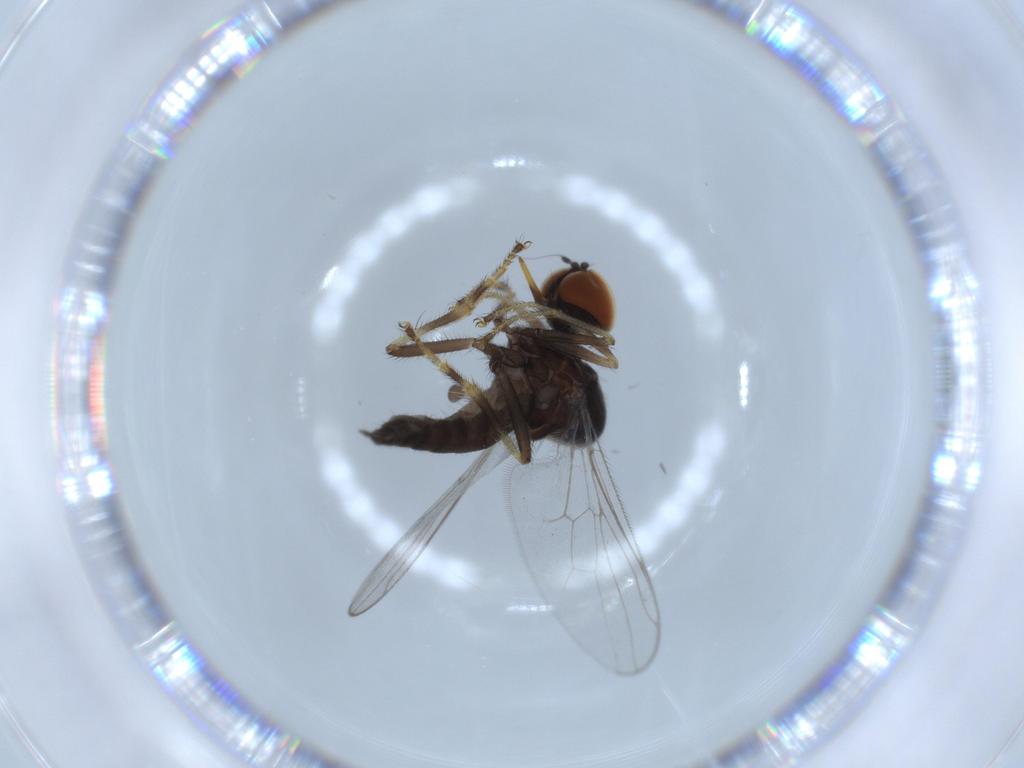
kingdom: Animalia
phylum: Arthropoda
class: Insecta
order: Diptera
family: Hybotidae
